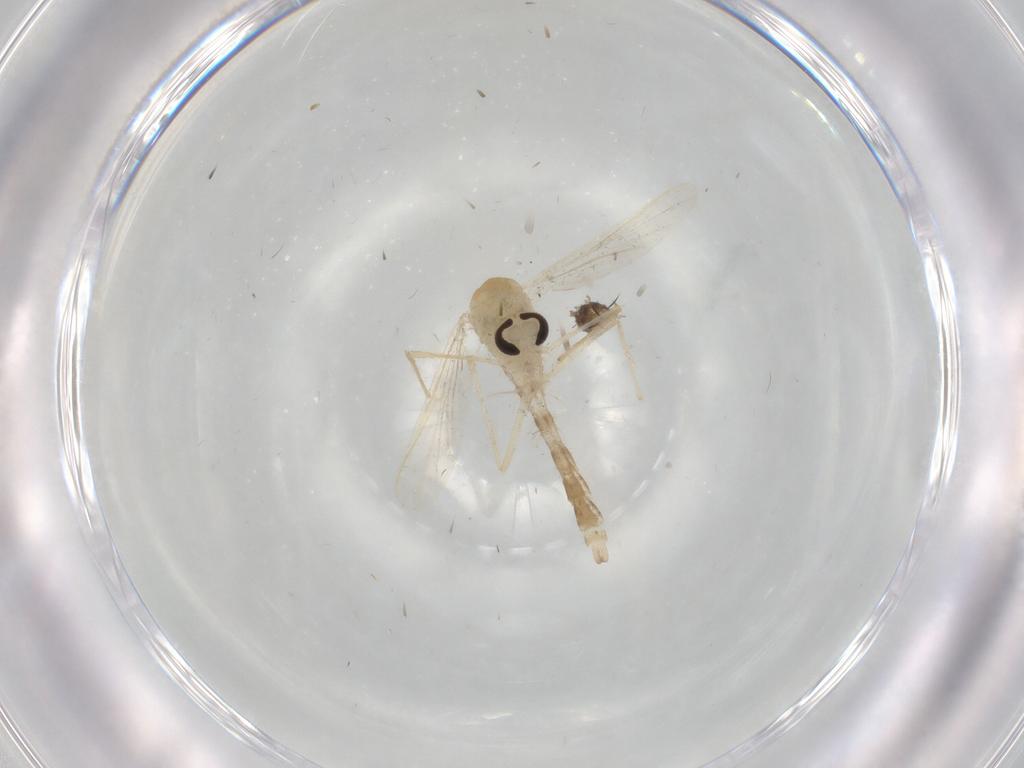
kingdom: Animalia
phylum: Arthropoda
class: Insecta
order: Diptera
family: Chironomidae
